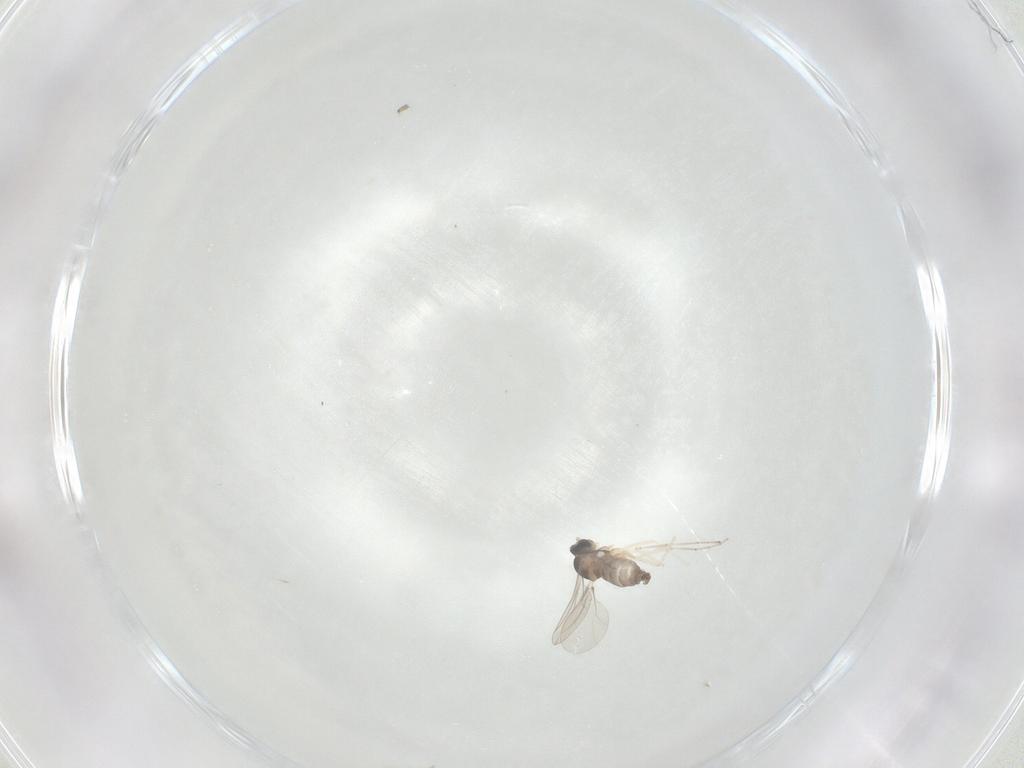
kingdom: Animalia
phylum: Arthropoda
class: Insecta
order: Diptera
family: Cecidomyiidae
